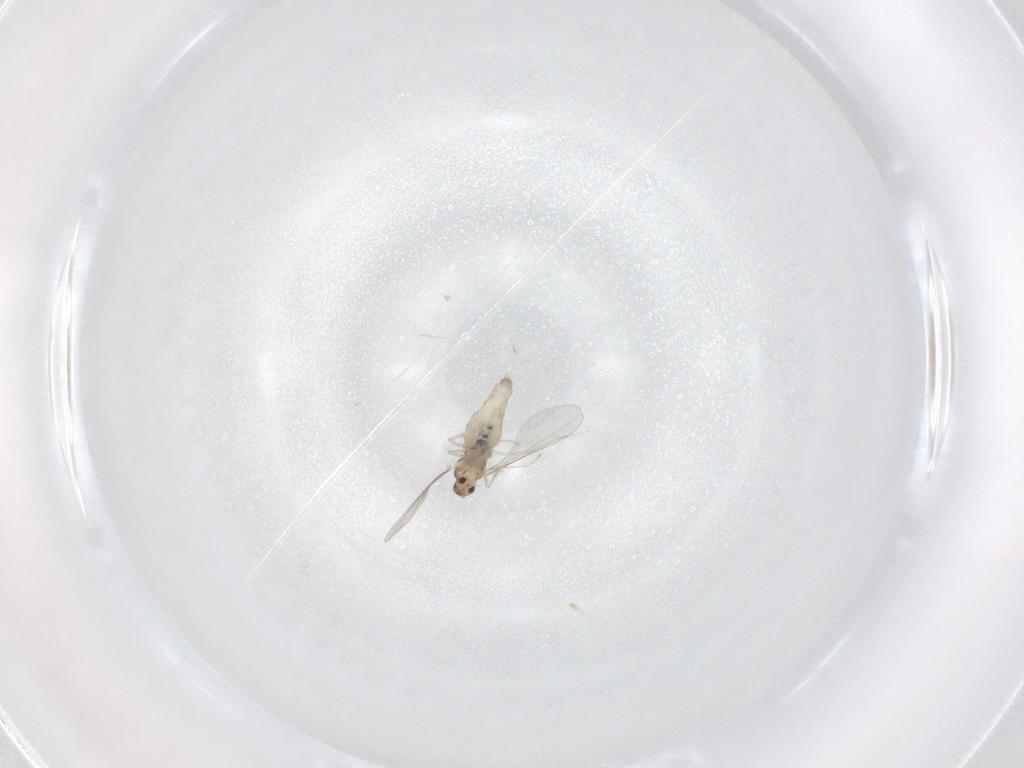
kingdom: Animalia
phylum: Arthropoda
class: Insecta
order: Diptera
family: Cecidomyiidae
